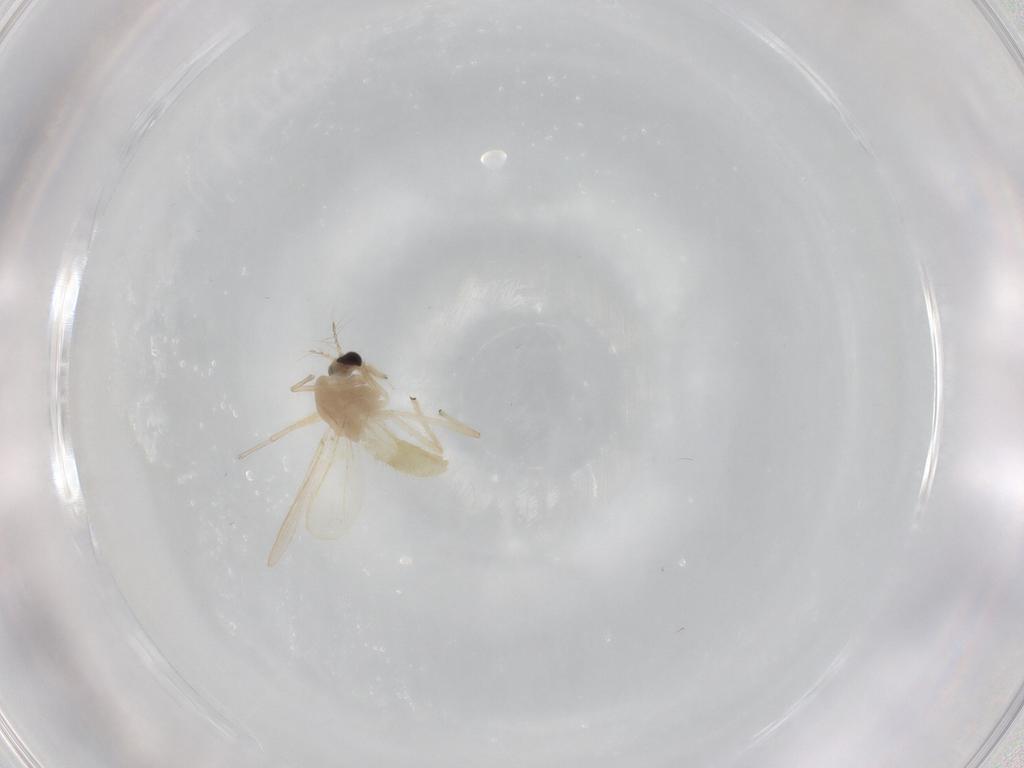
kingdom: Animalia
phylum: Arthropoda
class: Insecta
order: Diptera
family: Chironomidae
